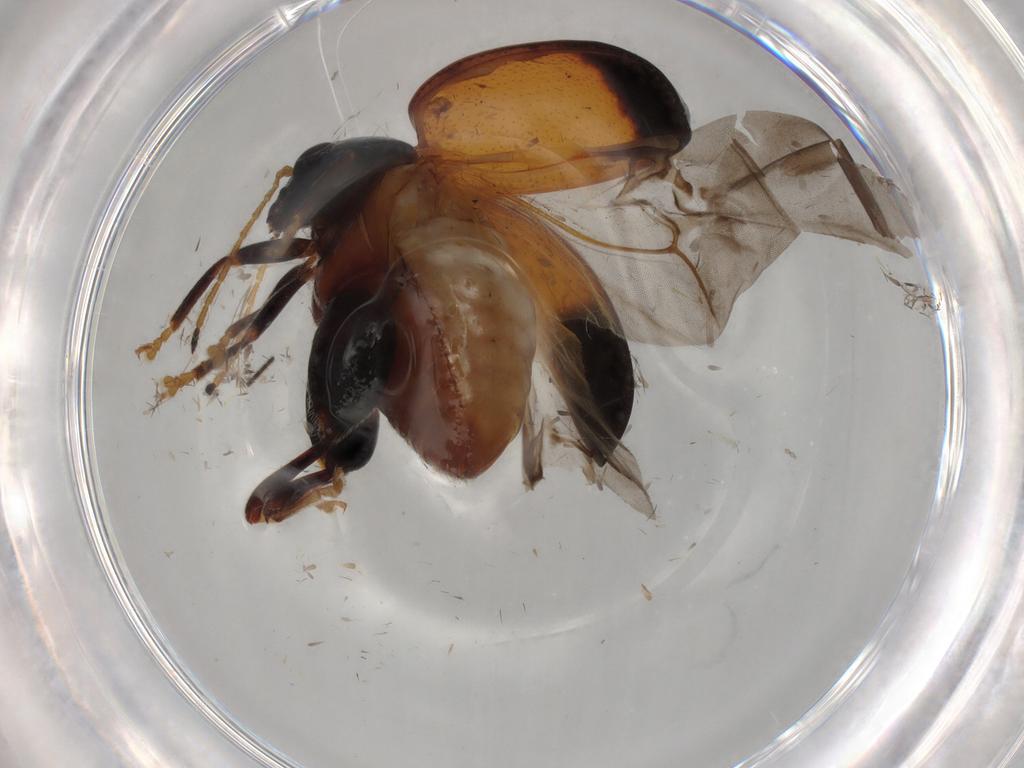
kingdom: Animalia
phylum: Arthropoda
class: Insecta
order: Coleoptera
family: Chrysomelidae
